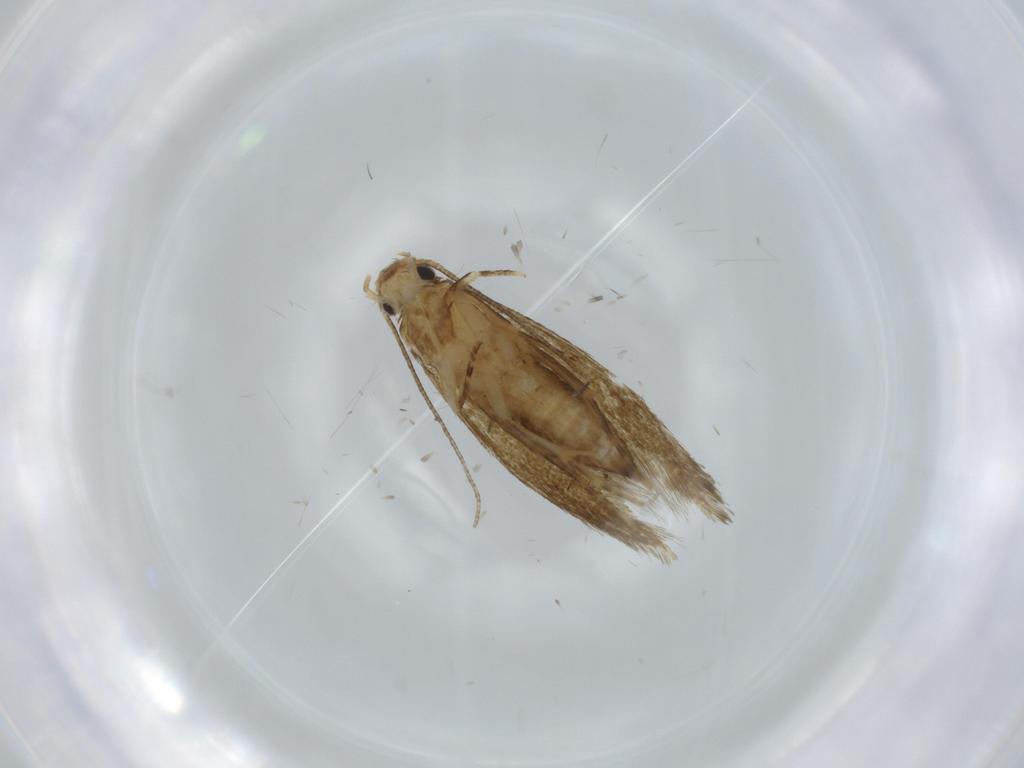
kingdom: Animalia
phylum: Arthropoda
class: Insecta
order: Lepidoptera
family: Tineidae
